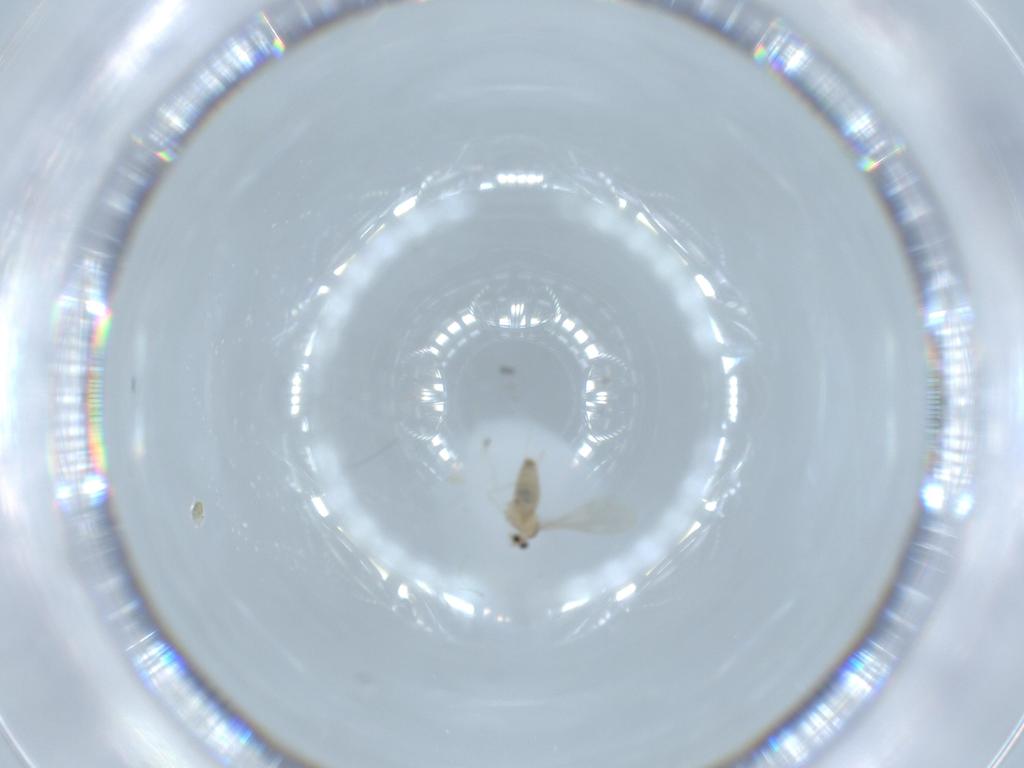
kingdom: Animalia
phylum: Arthropoda
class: Insecta
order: Diptera
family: Cecidomyiidae
